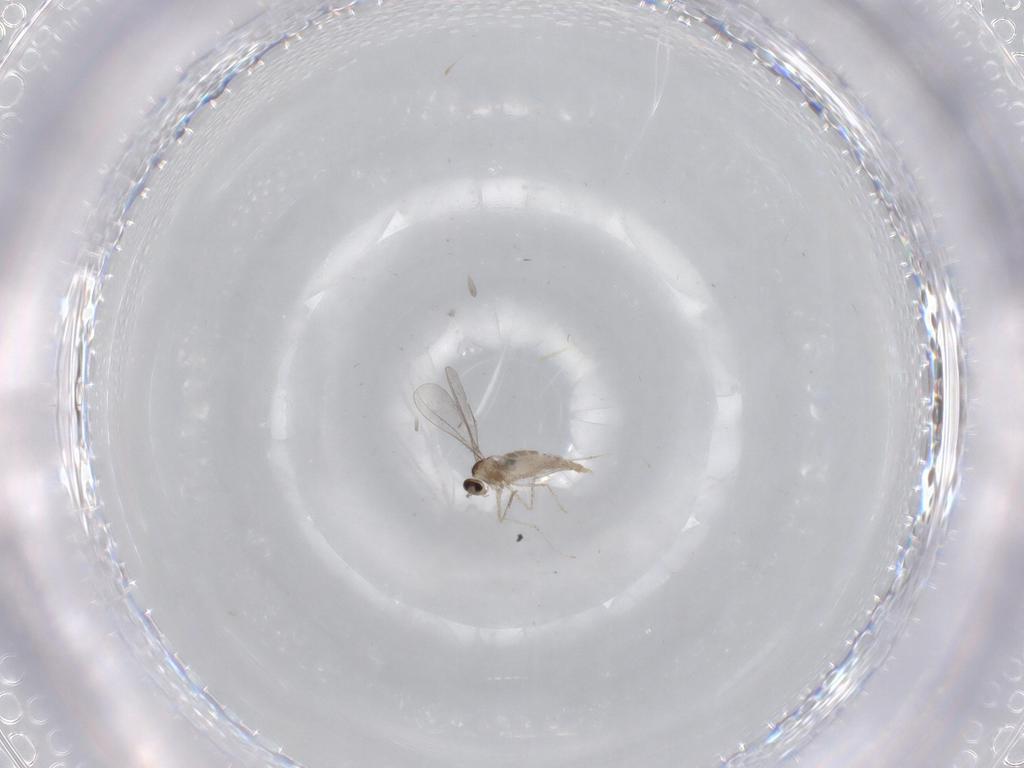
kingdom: Animalia
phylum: Arthropoda
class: Insecta
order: Diptera
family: Cecidomyiidae
